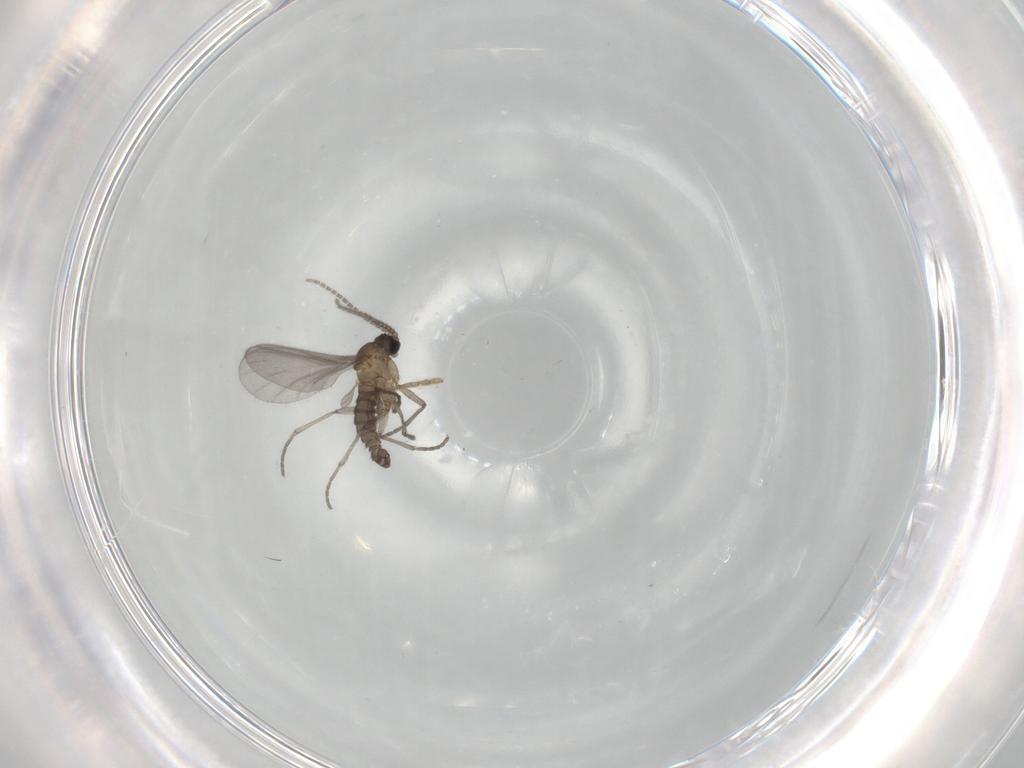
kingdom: Animalia
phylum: Arthropoda
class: Insecta
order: Diptera
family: Sciaridae
